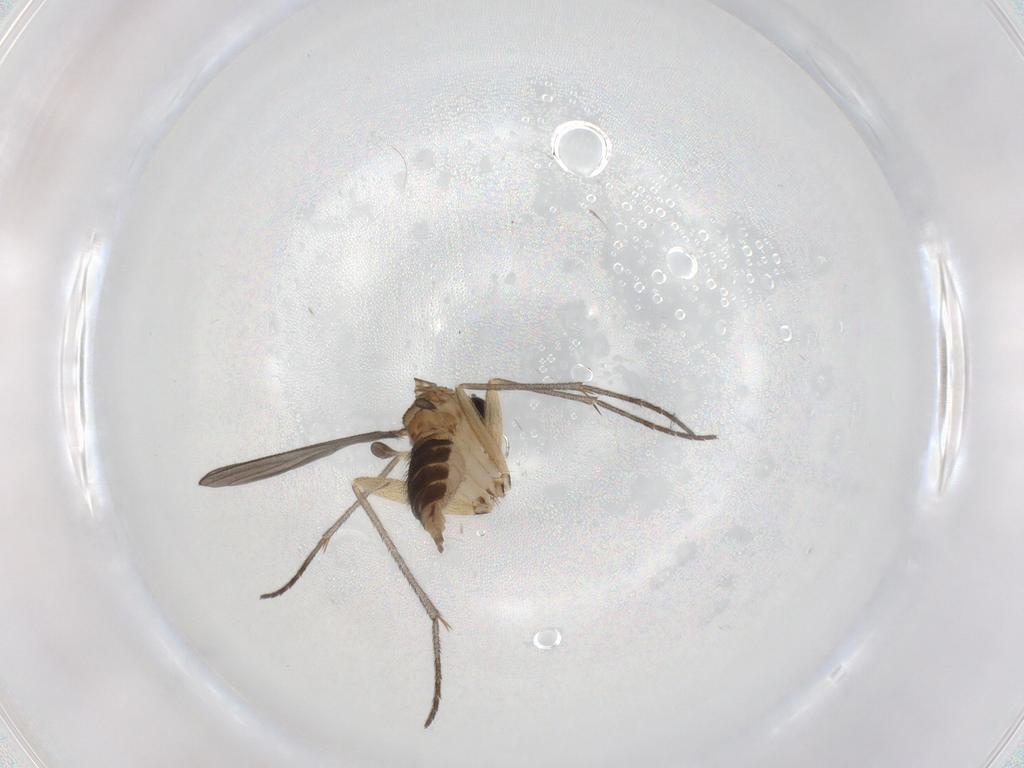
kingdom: Animalia
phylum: Arthropoda
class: Insecta
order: Diptera
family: Sciaridae
